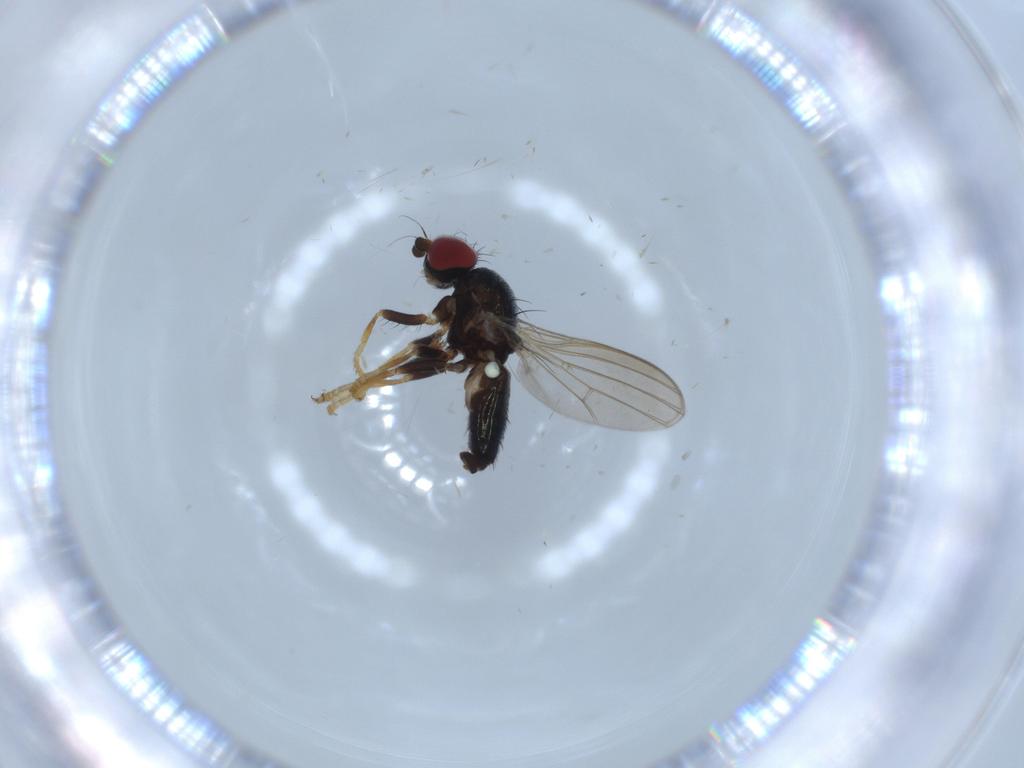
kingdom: Animalia
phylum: Arthropoda
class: Insecta
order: Diptera
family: Chamaemyiidae
